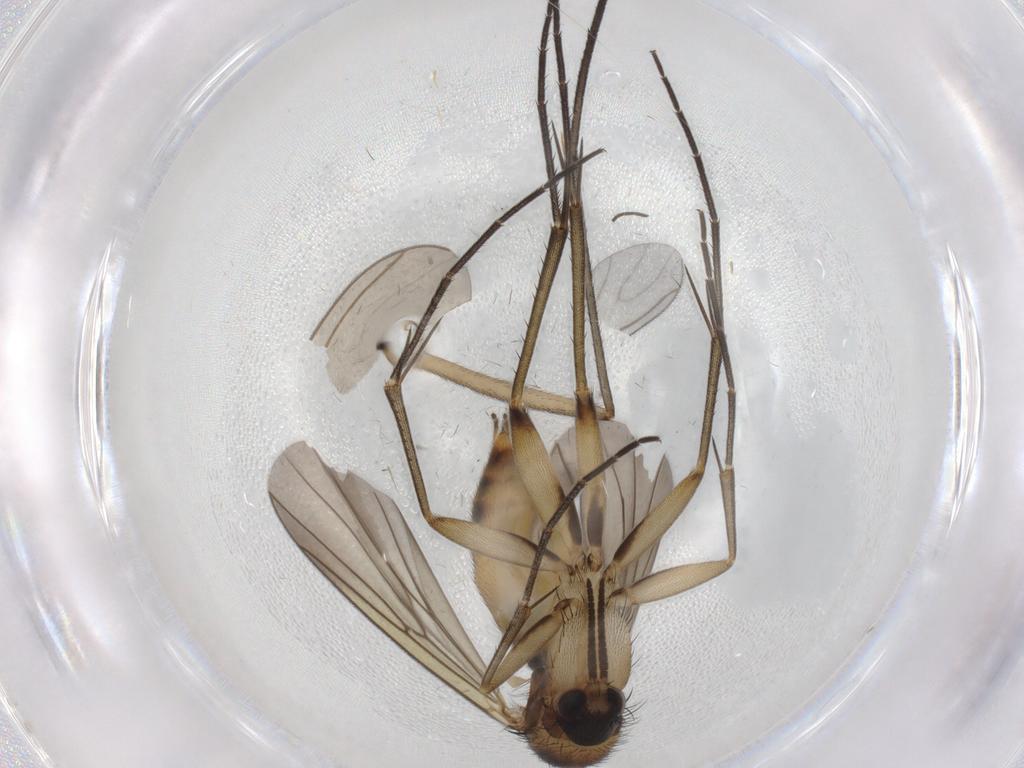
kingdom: Animalia
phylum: Arthropoda
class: Insecta
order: Diptera
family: Mycetophilidae
